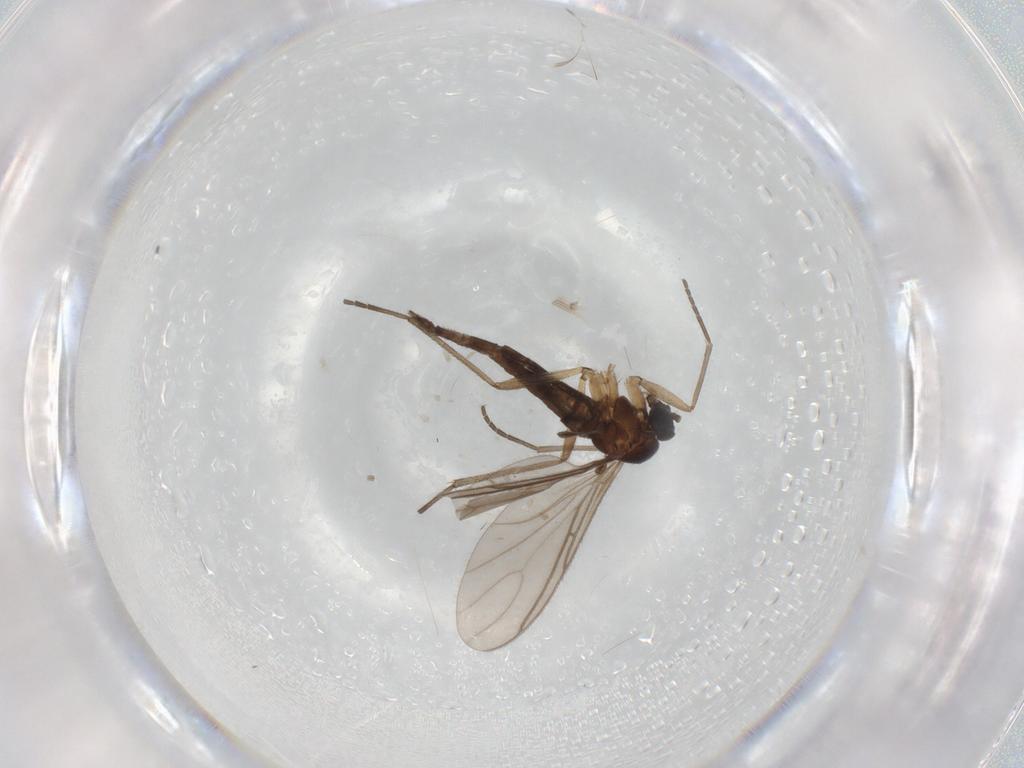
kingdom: Animalia
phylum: Arthropoda
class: Insecta
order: Diptera
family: Sciaridae
